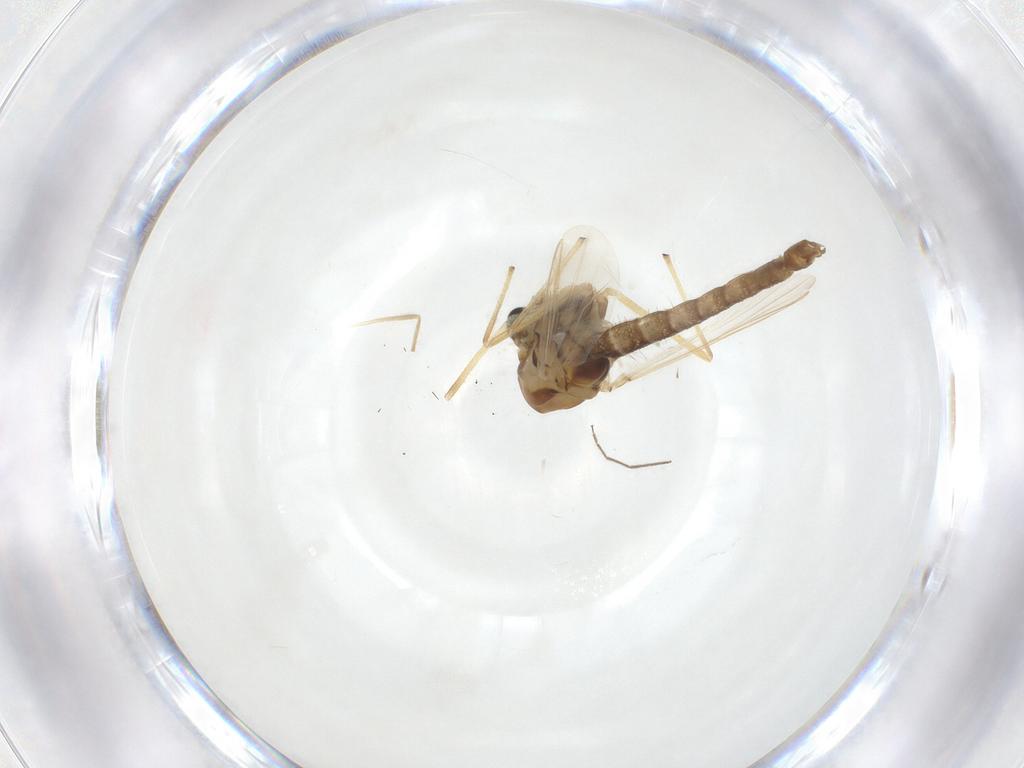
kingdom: Animalia
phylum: Arthropoda
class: Insecta
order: Diptera
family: Chironomidae
